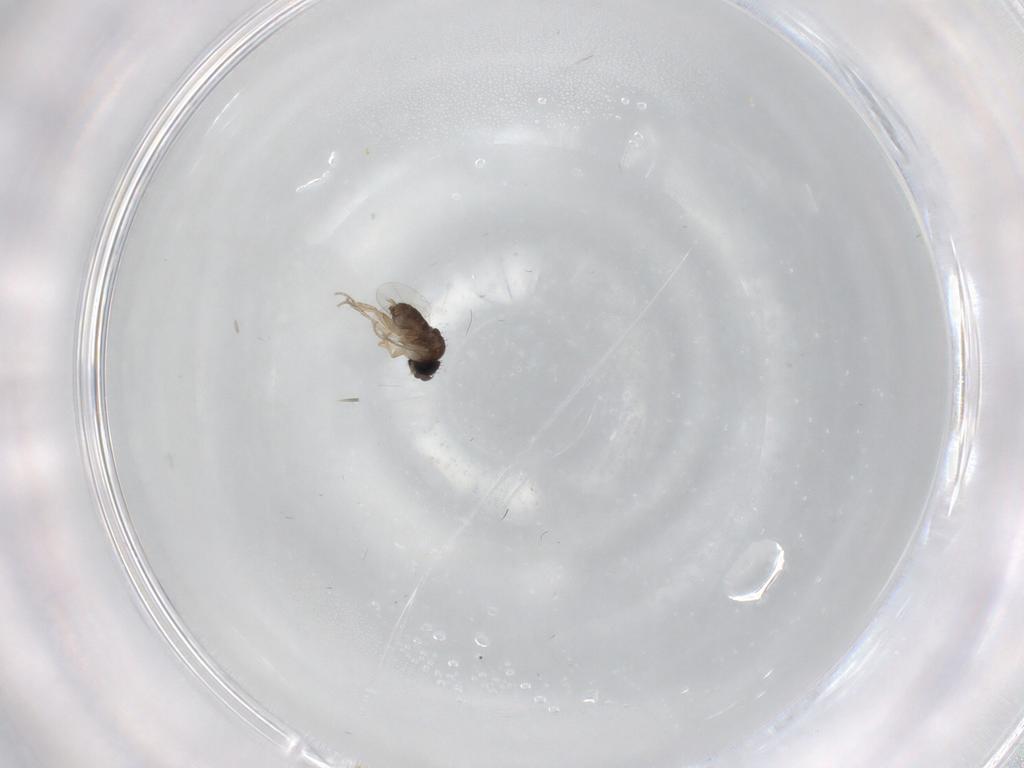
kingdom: Animalia
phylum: Arthropoda
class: Insecta
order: Diptera
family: Phoridae
